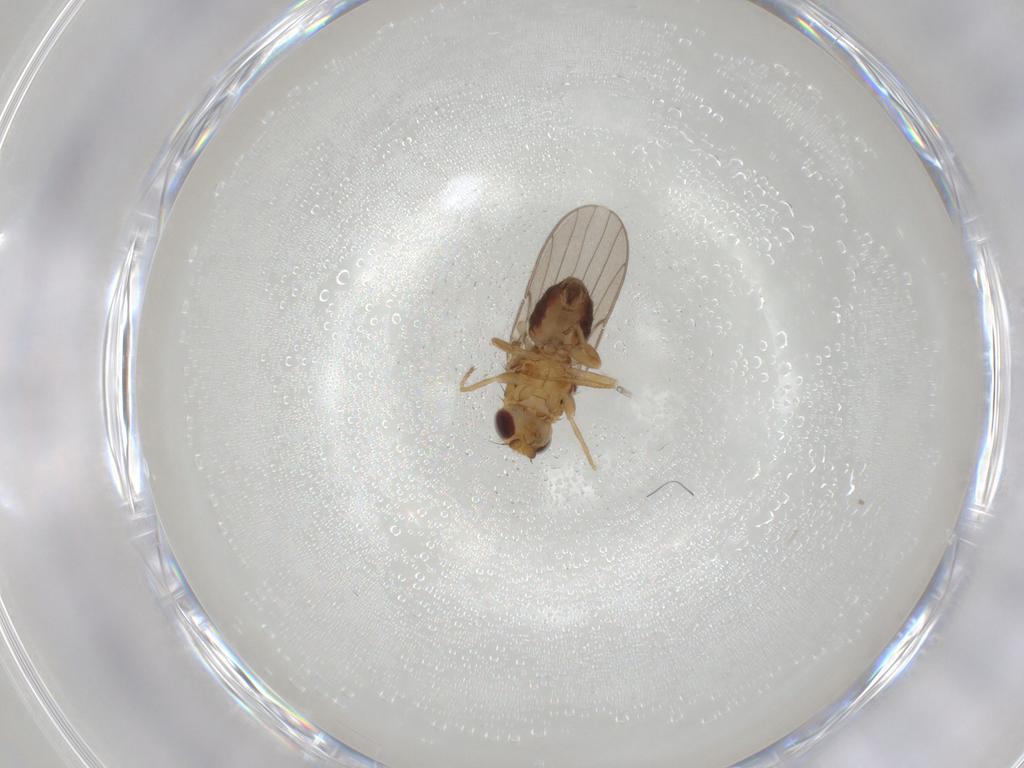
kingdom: Animalia
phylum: Arthropoda
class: Insecta
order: Diptera
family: Chloropidae
